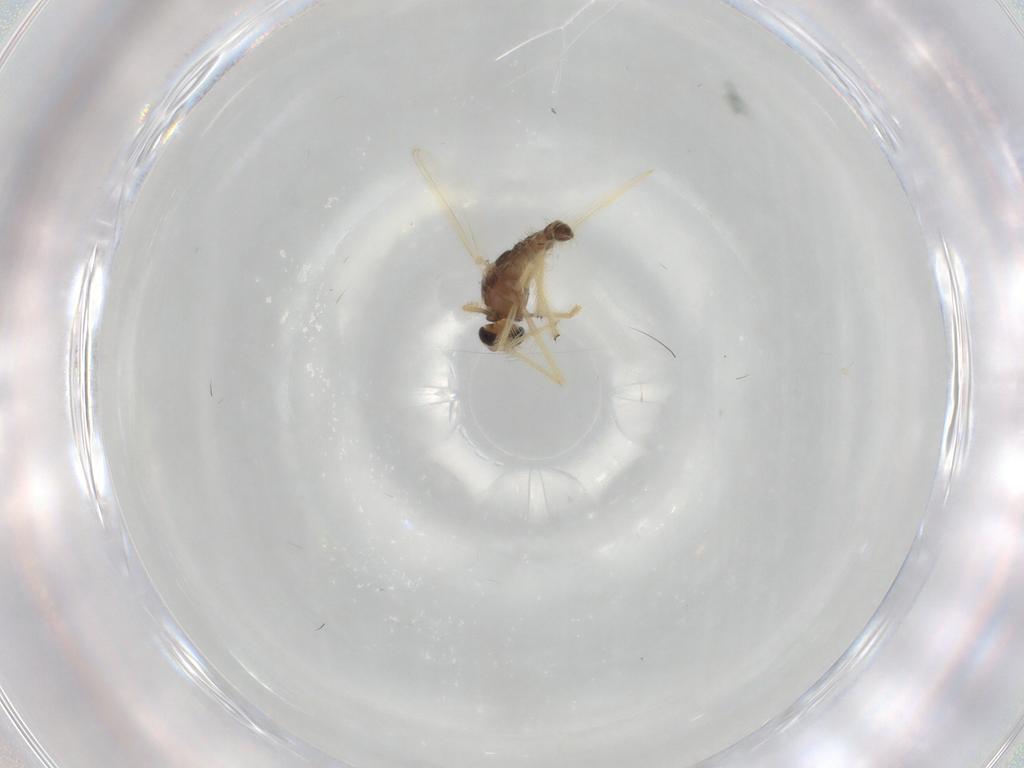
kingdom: Animalia
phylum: Arthropoda
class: Insecta
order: Diptera
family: Chironomidae
